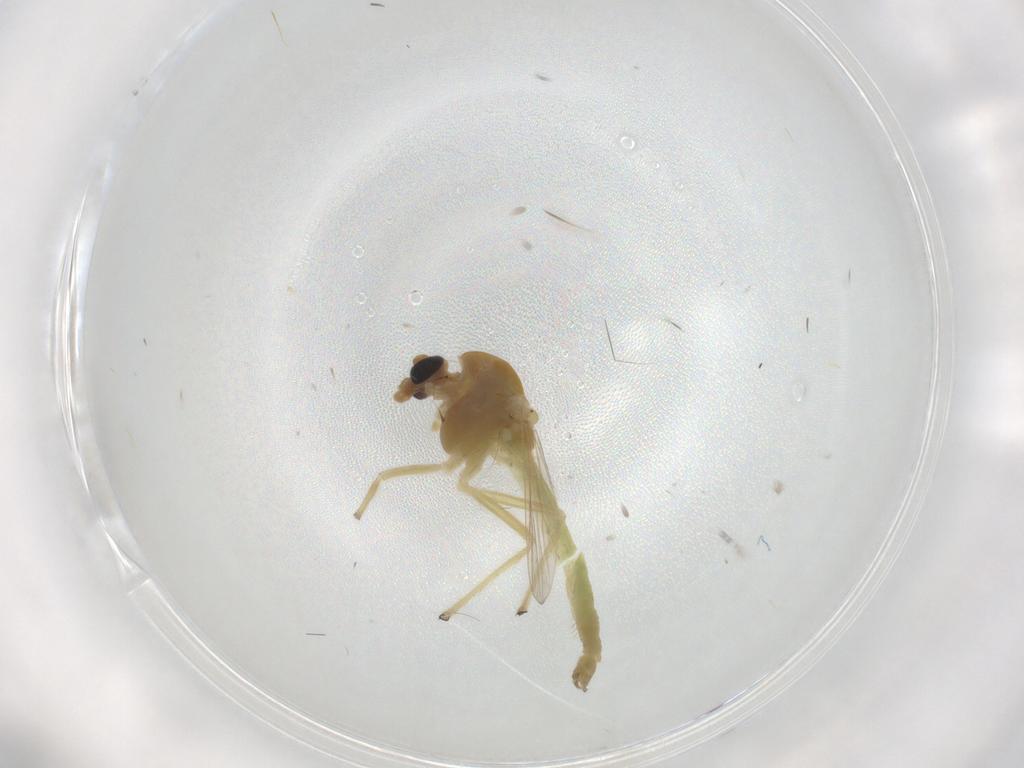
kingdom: Animalia
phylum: Arthropoda
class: Insecta
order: Diptera
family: Chironomidae
